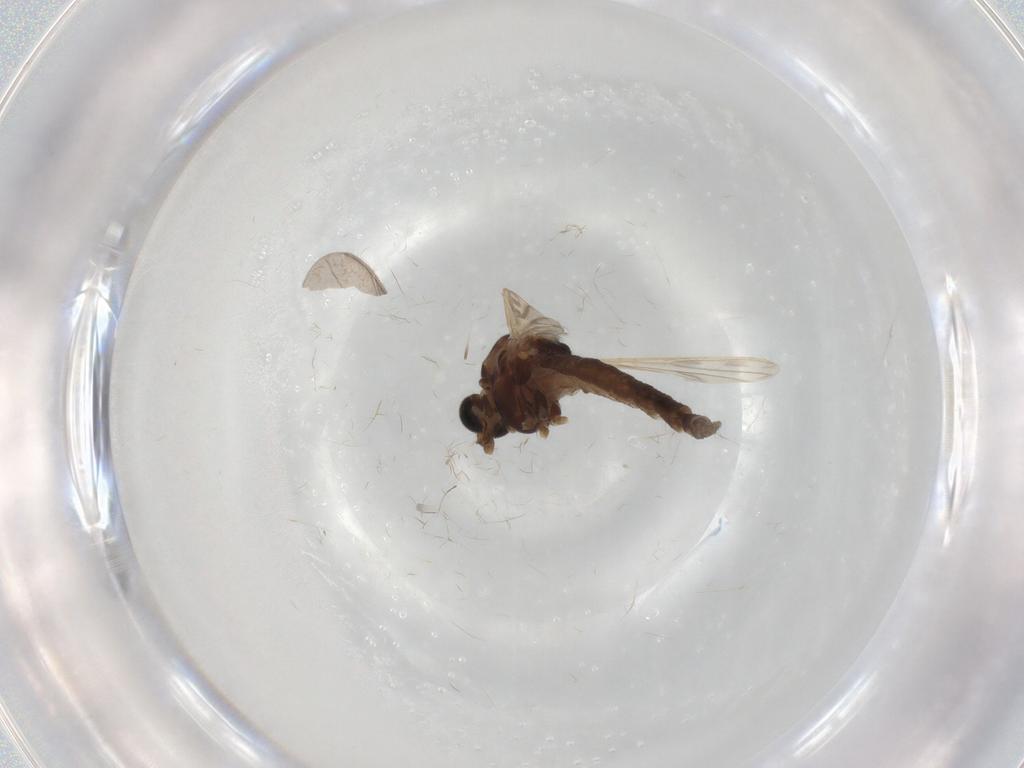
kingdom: Animalia
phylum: Arthropoda
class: Insecta
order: Diptera
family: Chironomidae
